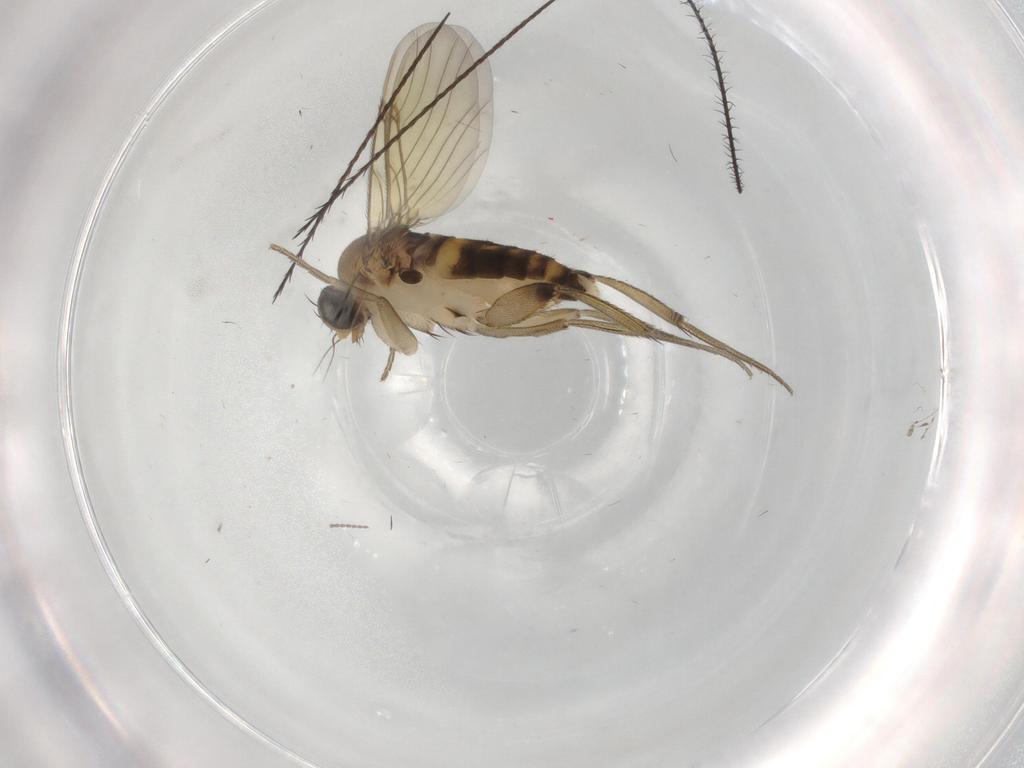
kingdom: Animalia
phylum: Arthropoda
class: Insecta
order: Diptera
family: Phoridae
